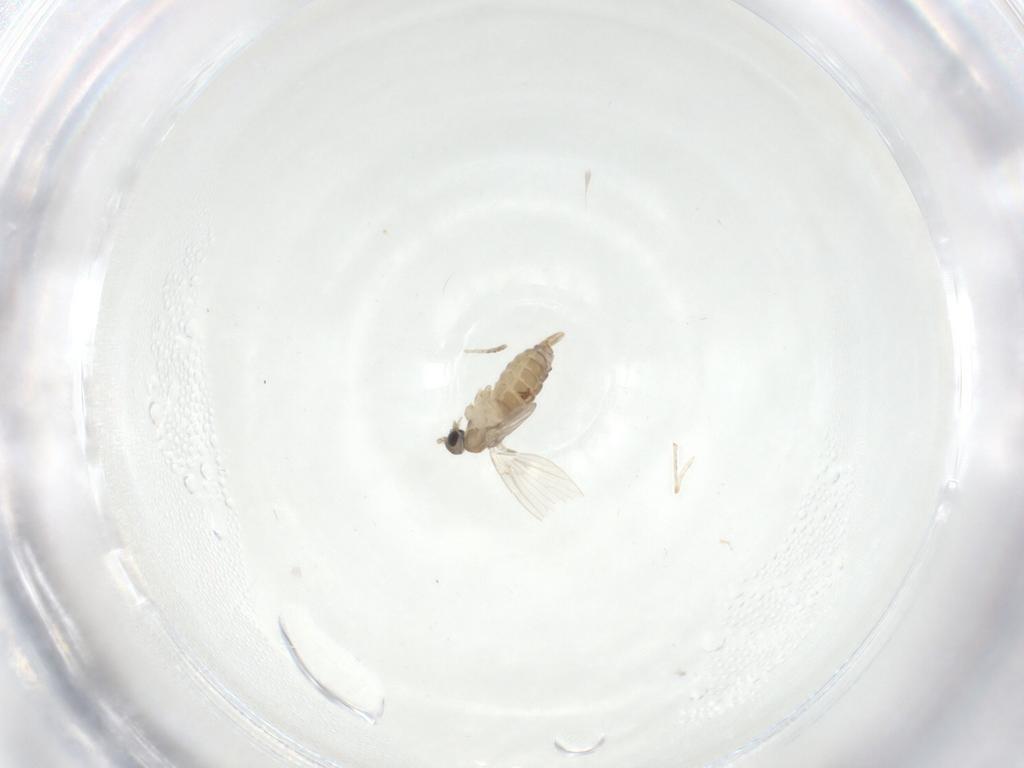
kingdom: Animalia
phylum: Arthropoda
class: Insecta
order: Diptera
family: Psychodidae
